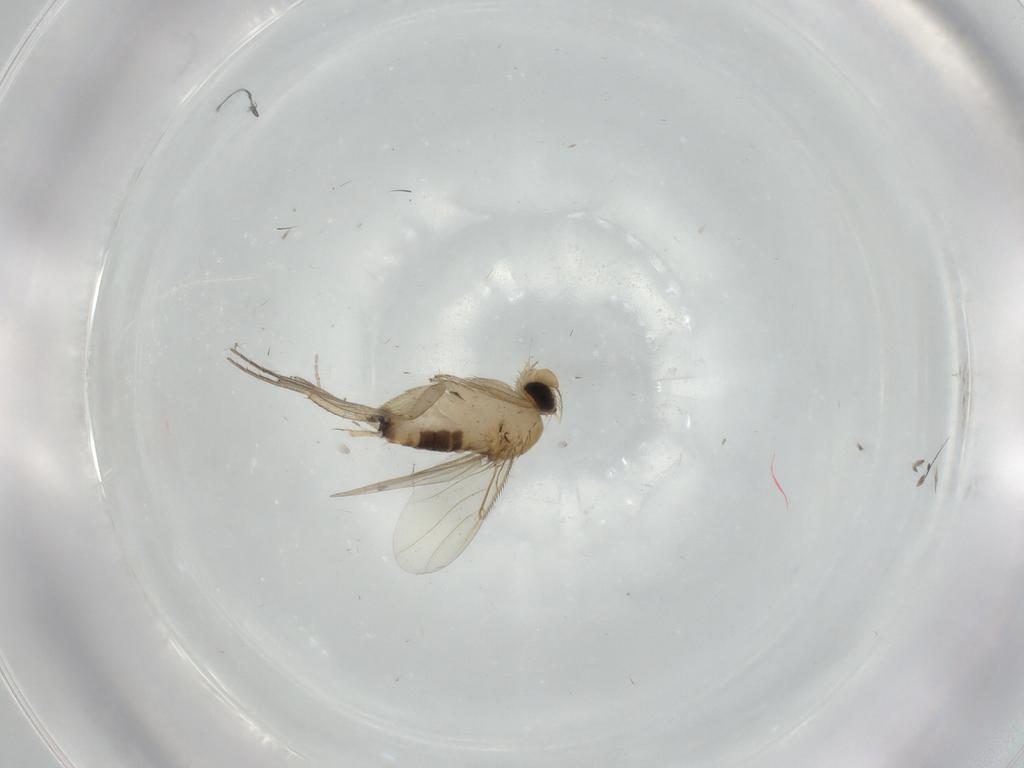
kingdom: Animalia
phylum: Arthropoda
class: Insecta
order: Diptera
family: Phoridae
